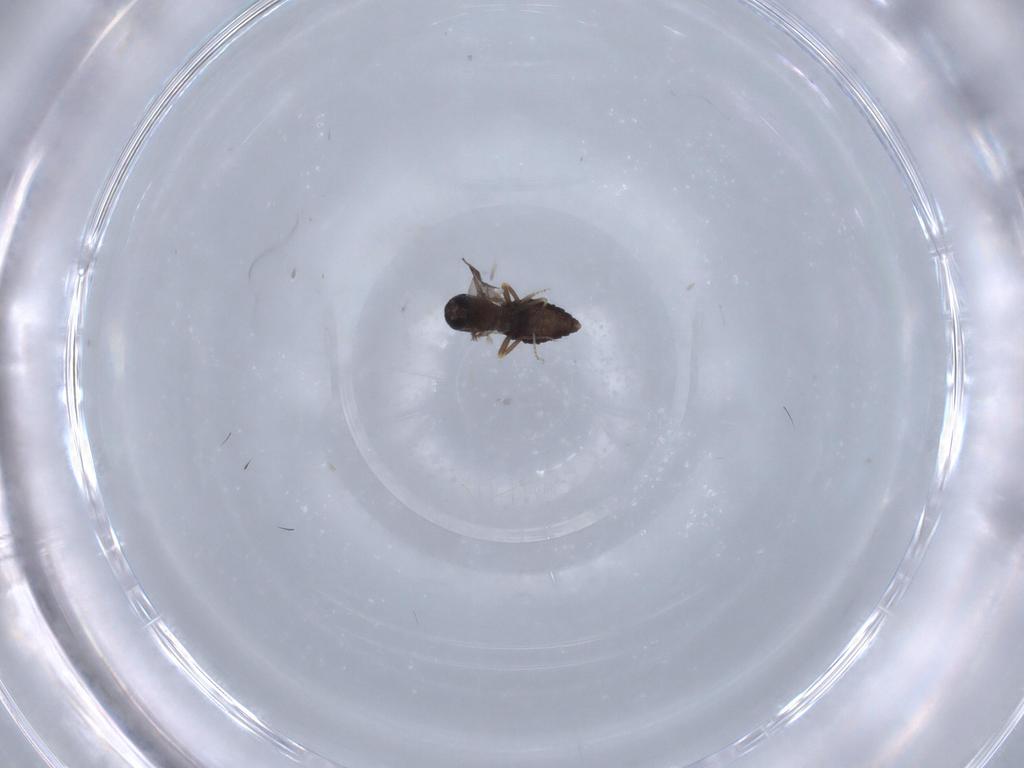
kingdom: Animalia
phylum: Arthropoda
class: Insecta
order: Diptera
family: Ceratopogonidae
